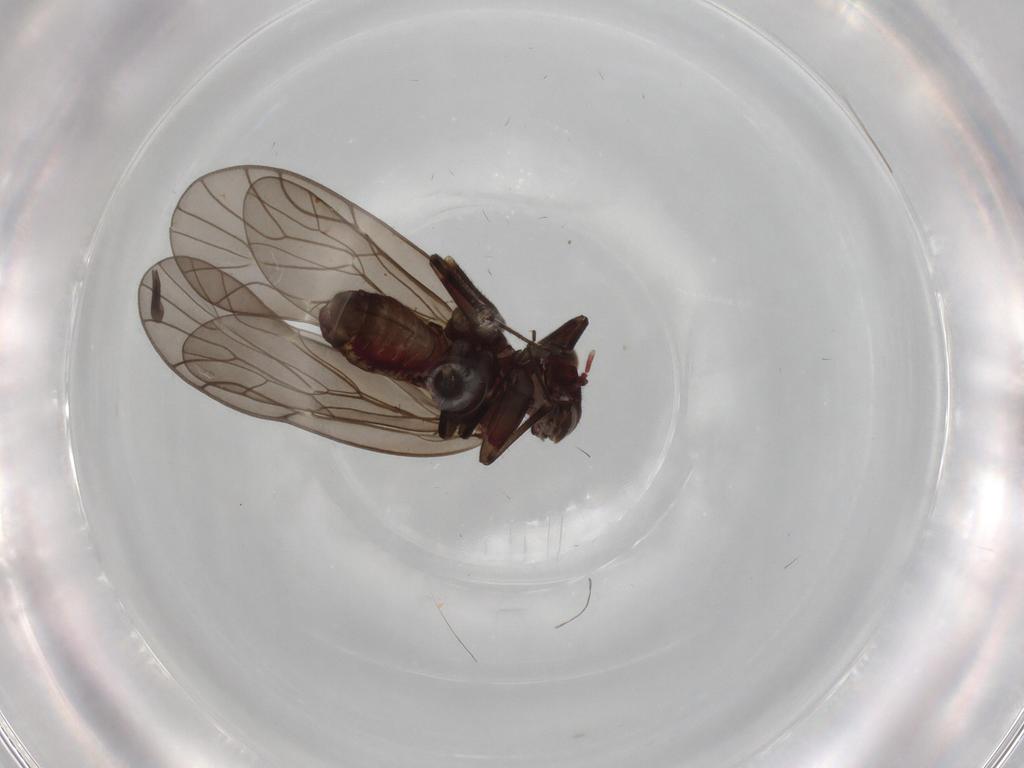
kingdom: Animalia
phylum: Arthropoda
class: Insecta
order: Psocodea
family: Philotarsidae
